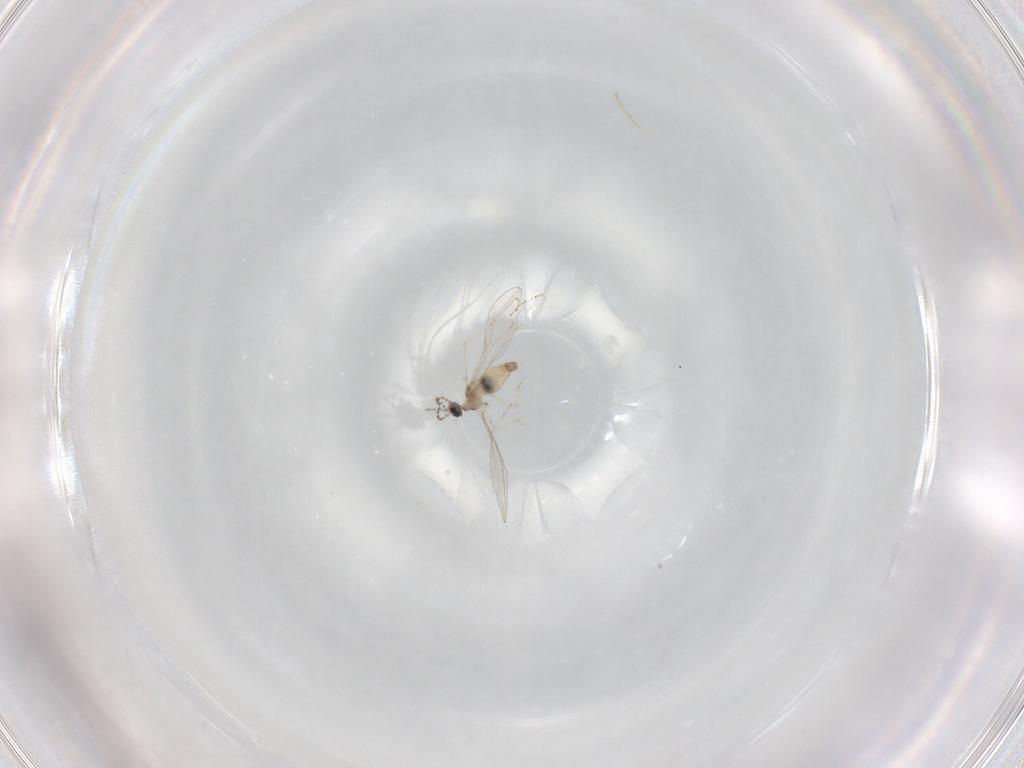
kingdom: Animalia
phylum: Arthropoda
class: Insecta
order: Diptera
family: Cecidomyiidae
